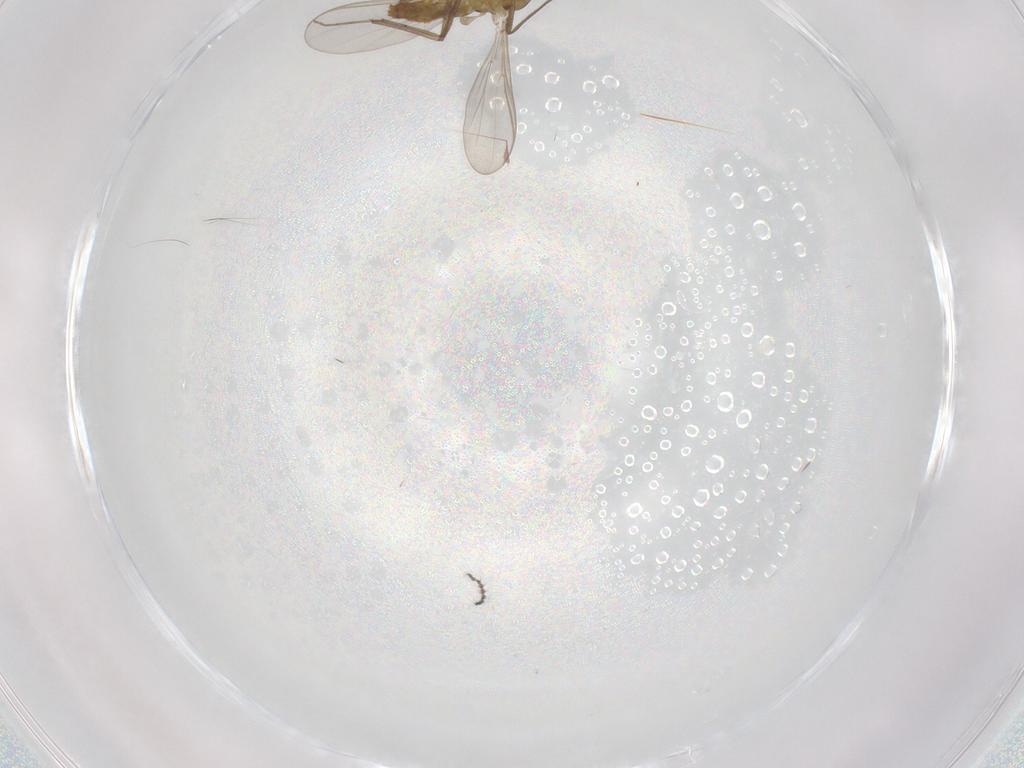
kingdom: Animalia
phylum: Arthropoda
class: Insecta
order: Diptera
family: Chironomidae
